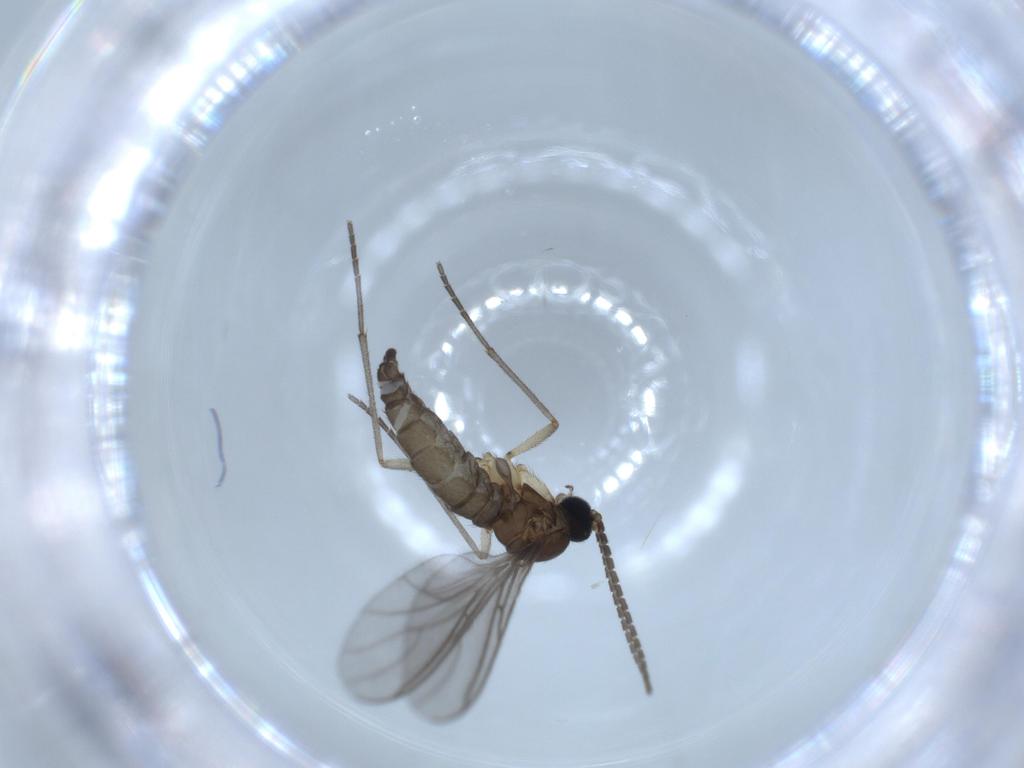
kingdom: Animalia
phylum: Arthropoda
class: Insecta
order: Diptera
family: Sciaridae
